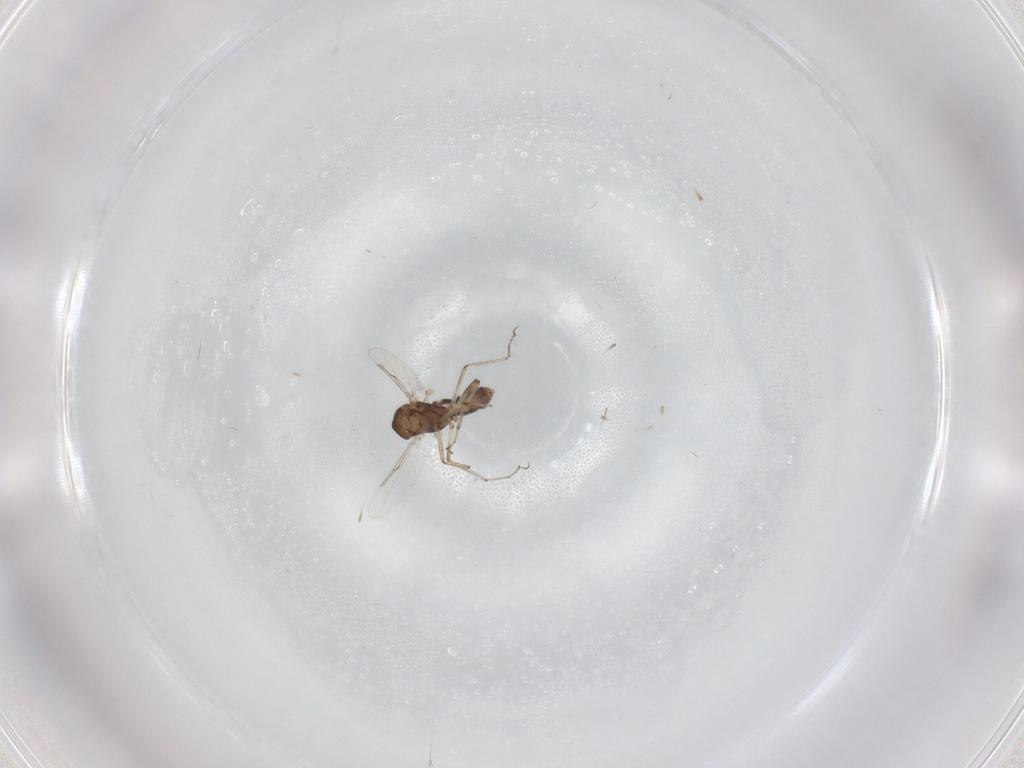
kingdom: Animalia
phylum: Arthropoda
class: Insecta
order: Diptera
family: Ceratopogonidae
